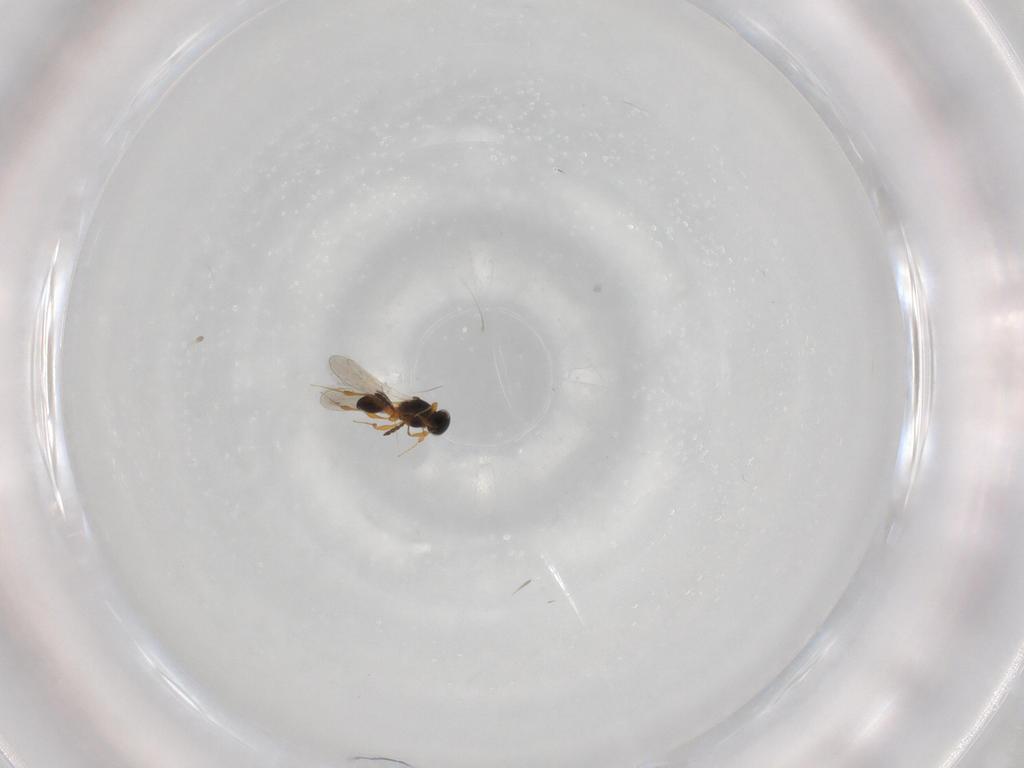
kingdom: Animalia
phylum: Arthropoda
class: Insecta
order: Hymenoptera
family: Platygastridae
